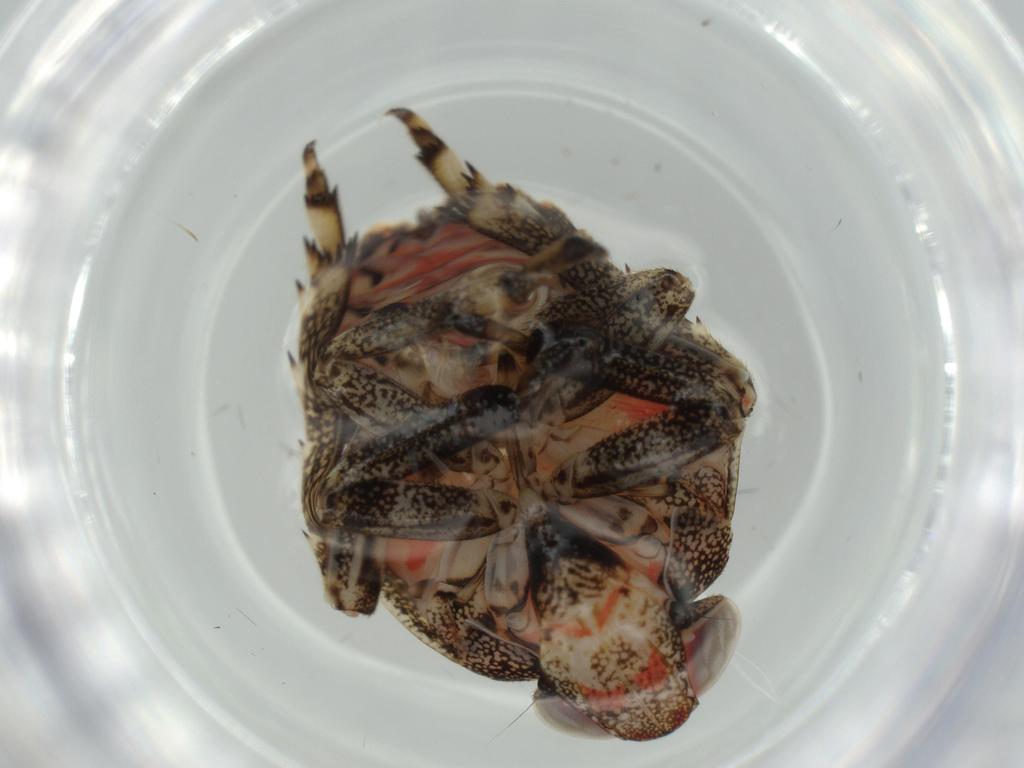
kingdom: Animalia
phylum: Arthropoda
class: Insecta
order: Hemiptera
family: Issidae
